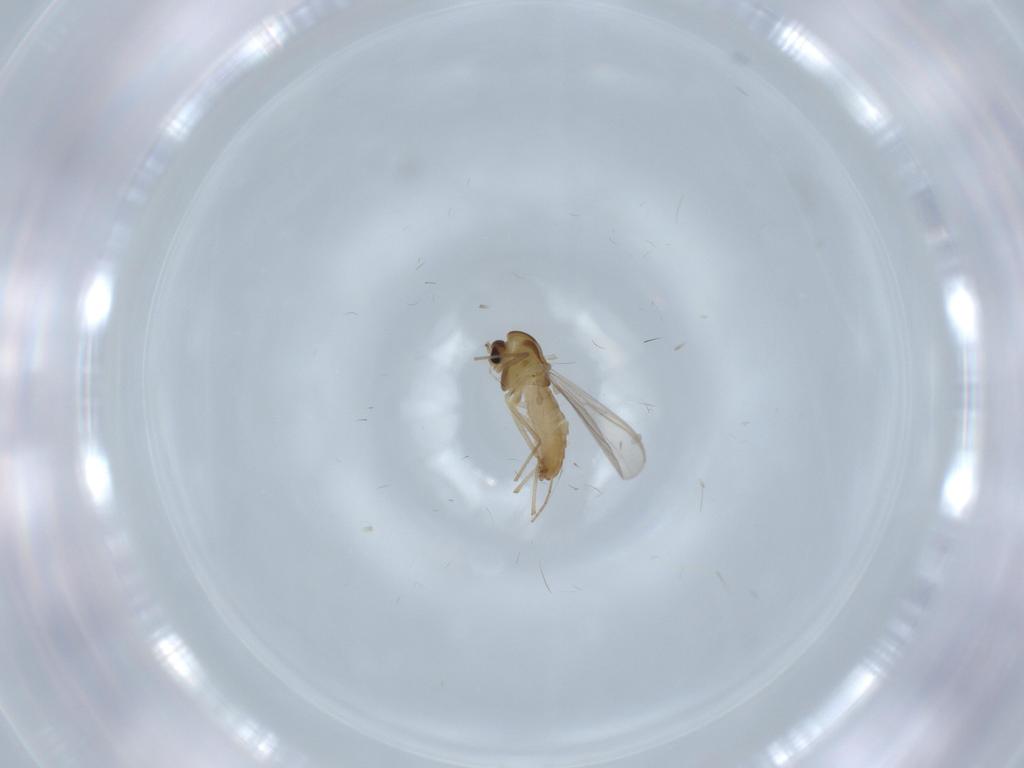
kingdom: Animalia
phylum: Arthropoda
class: Insecta
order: Diptera
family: Chironomidae
